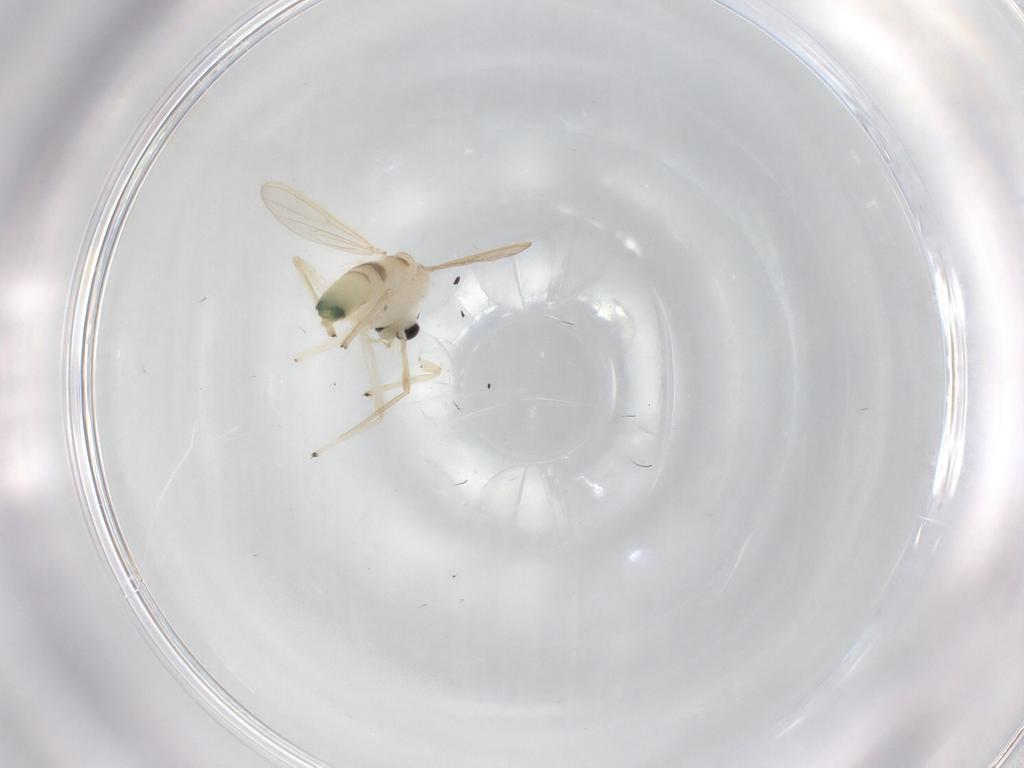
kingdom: Animalia
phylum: Arthropoda
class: Insecta
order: Diptera
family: Chironomidae
